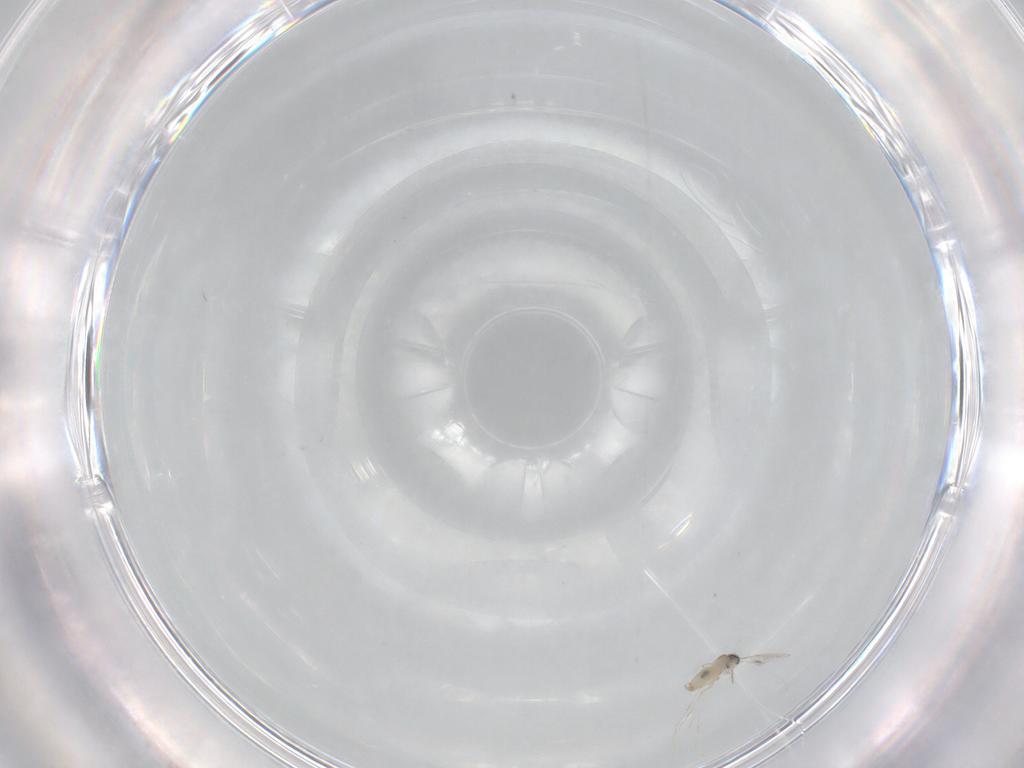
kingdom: Animalia
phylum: Arthropoda
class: Insecta
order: Diptera
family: Cecidomyiidae
